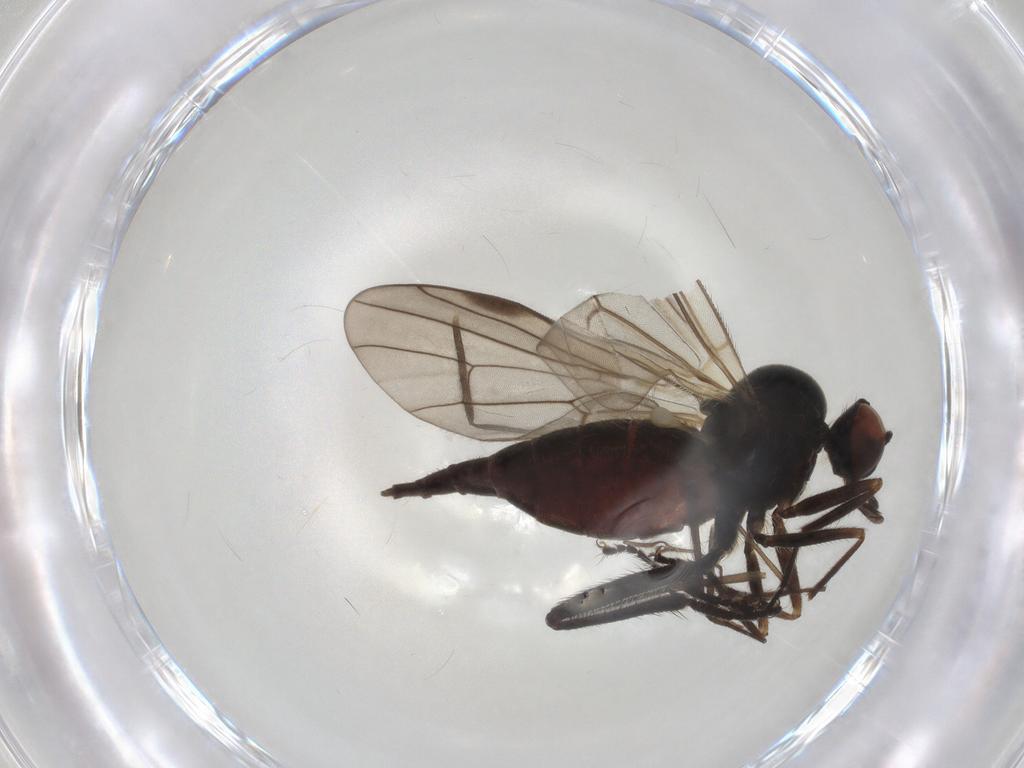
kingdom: Animalia
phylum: Arthropoda
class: Insecta
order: Diptera
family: Hybotidae
